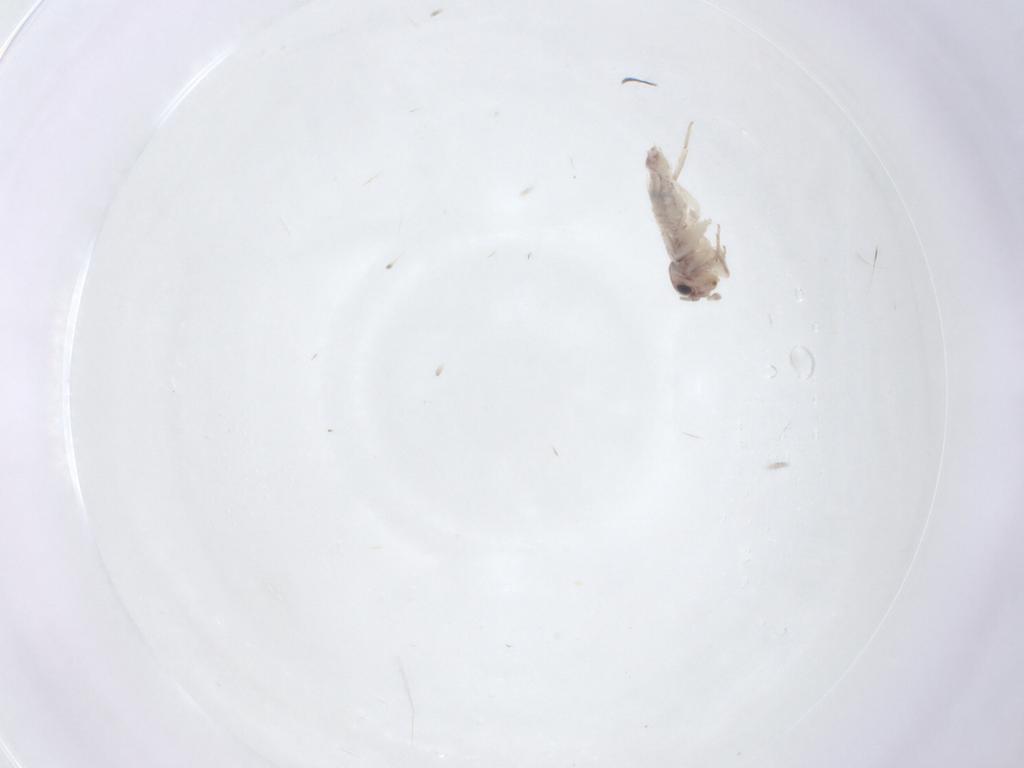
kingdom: Animalia
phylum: Arthropoda
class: Insecta
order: Psocodea
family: Lepidopsocidae
